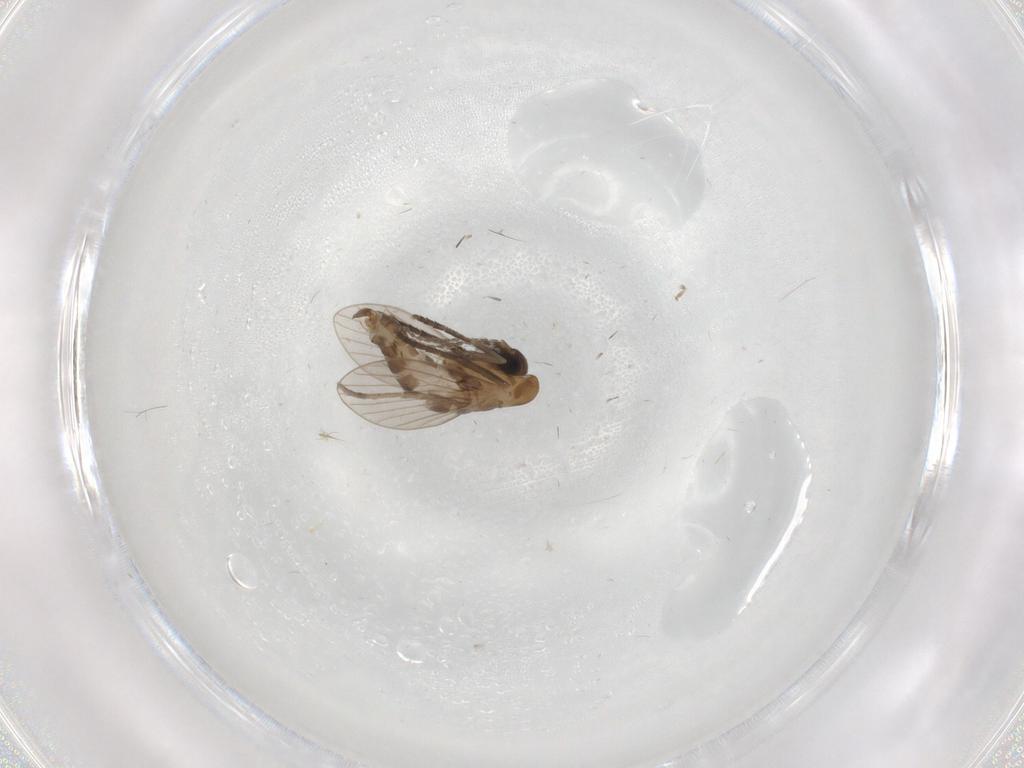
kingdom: Animalia
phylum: Arthropoda
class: Insecta
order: Diptera
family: Psychodidae
